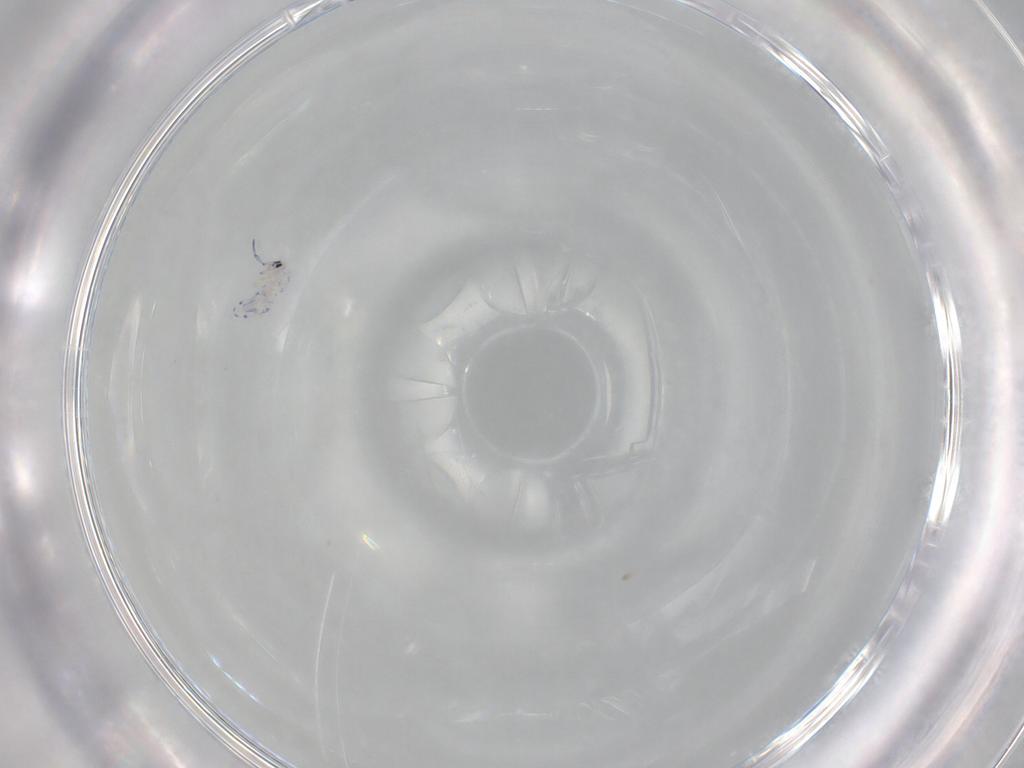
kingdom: Animalia
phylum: Arthropoda
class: Collembola
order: Entomobryomorpha
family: Entomobryidae
